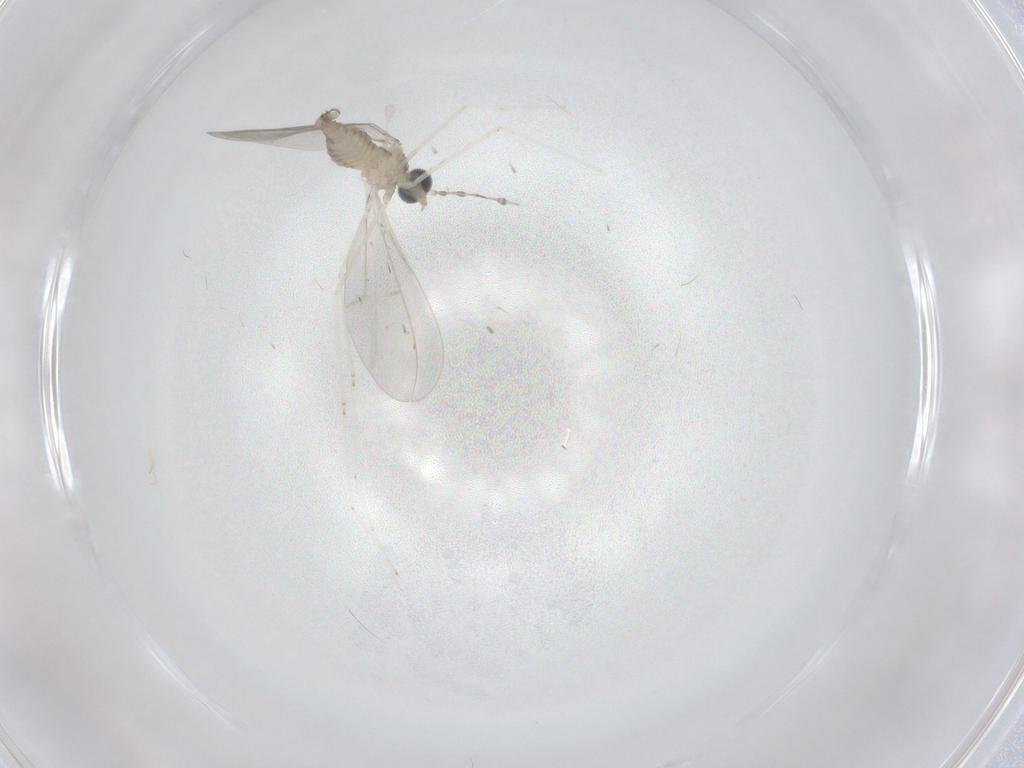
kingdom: Animalia
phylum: Arthropoda
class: Insecta
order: Diptera
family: Cecidomyiidae
